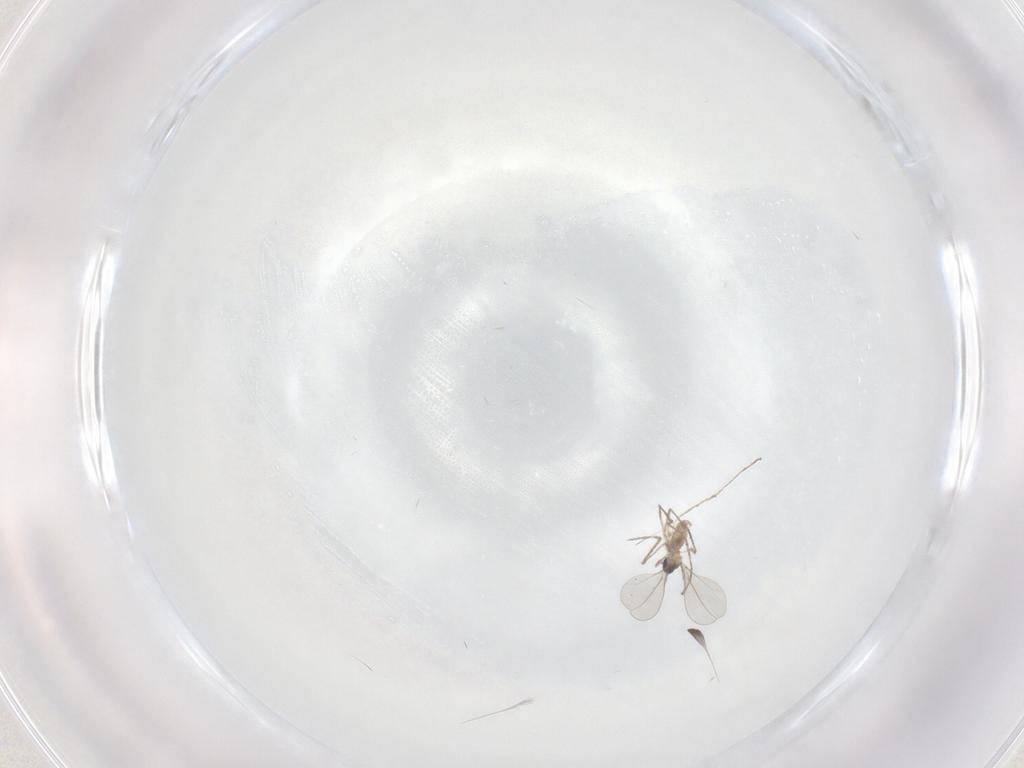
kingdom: Animalia
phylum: Arthropoda
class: Insecta
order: Diptera
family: Cecidomyiidae
